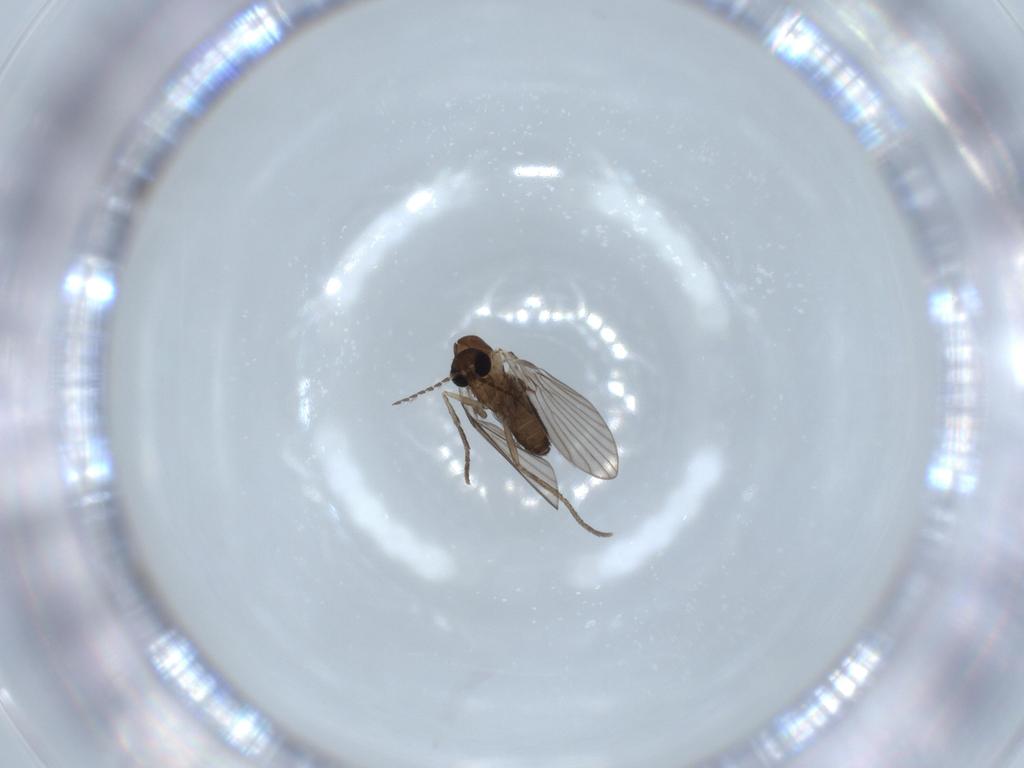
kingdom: Animalia
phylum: Arthropoda
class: Insecta
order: Diptera
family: Psychodidae
